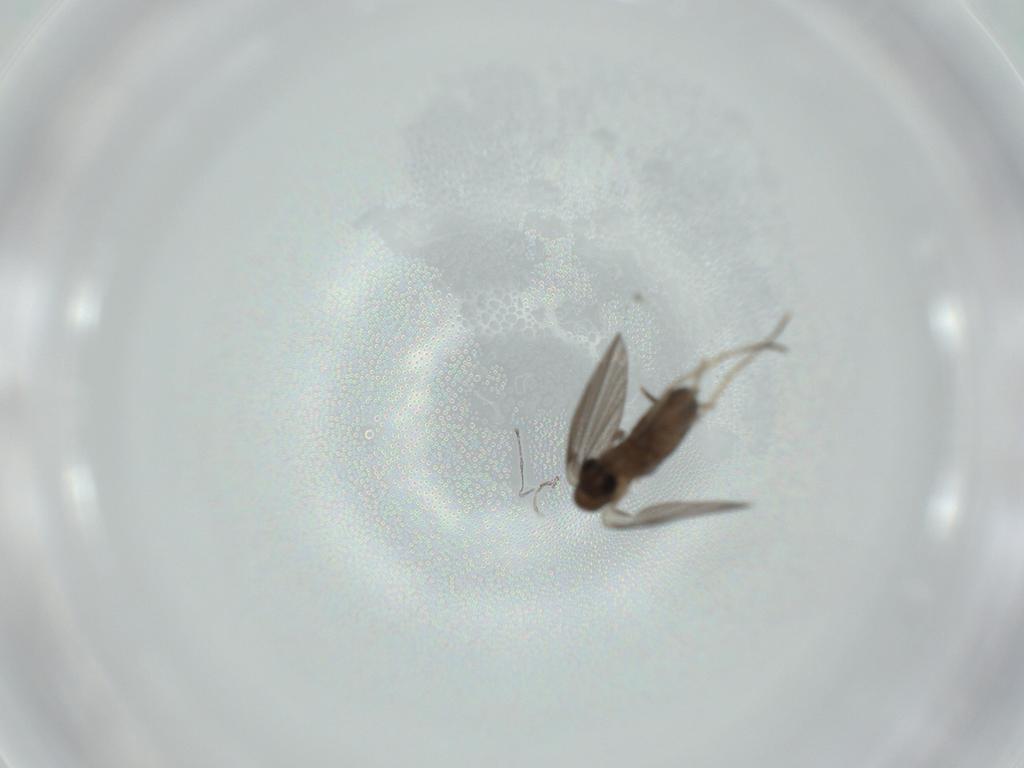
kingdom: Animalia
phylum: Arthropoda
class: Insecta
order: Diptera
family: Psychodidae
